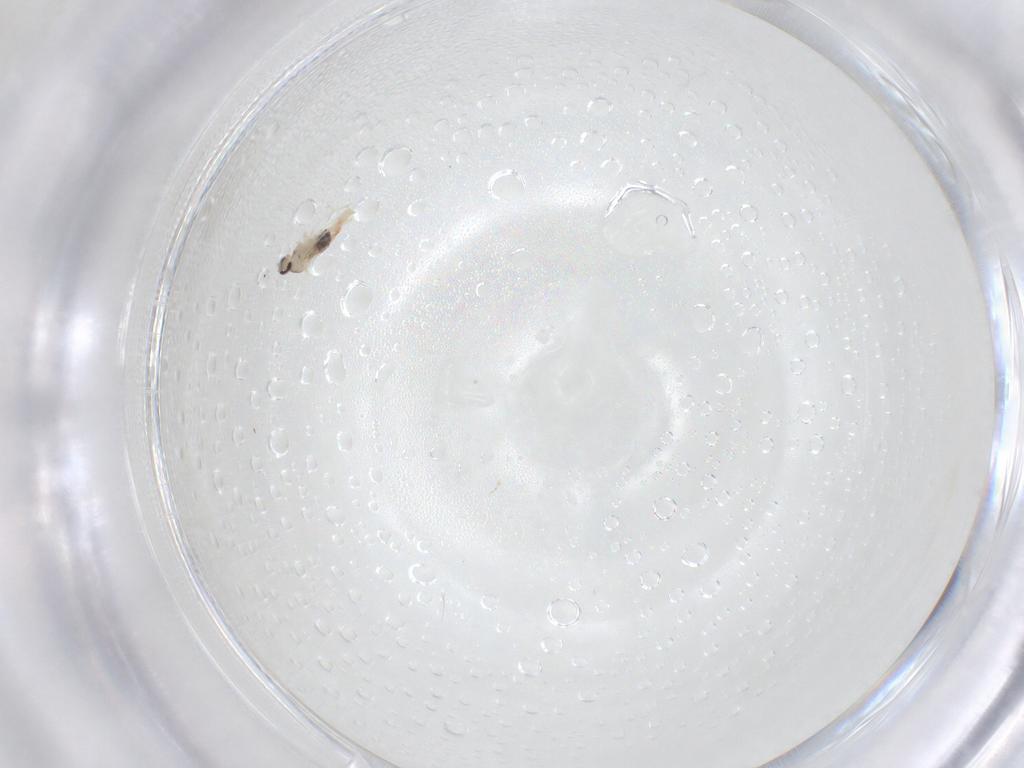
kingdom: Animalia
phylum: Arthropoda
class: Insecta
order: Diptera
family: Cecidomyiidae
